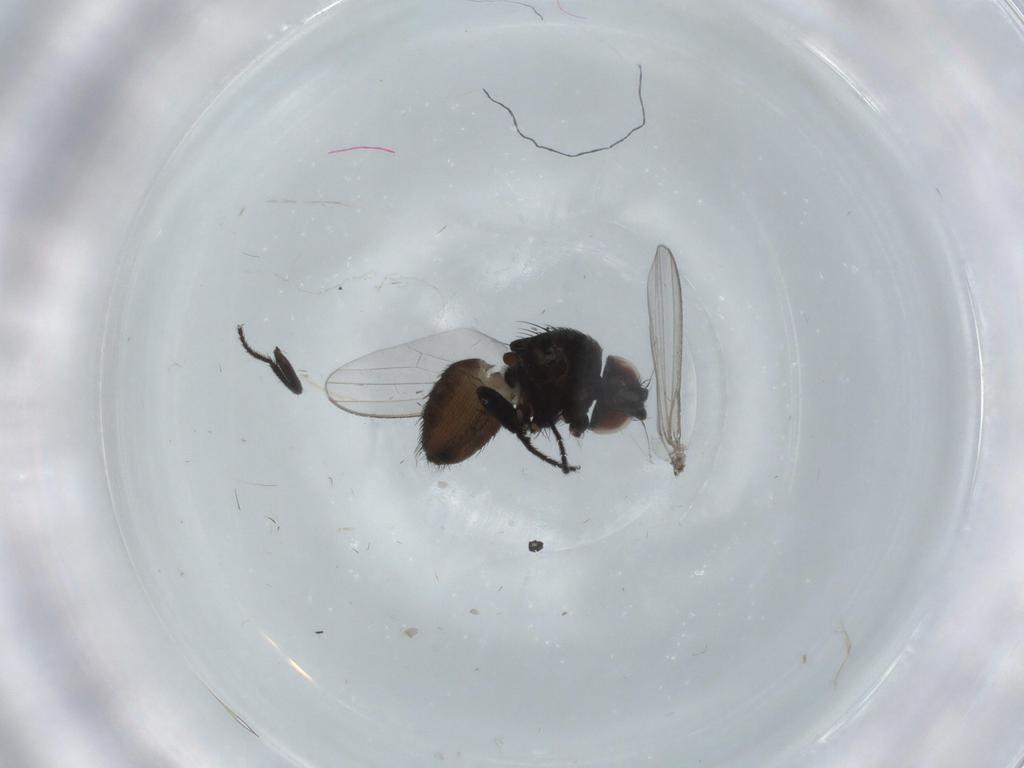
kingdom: Animalia
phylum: Arthropoda
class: Insecta
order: Diptera
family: Milichiidae
